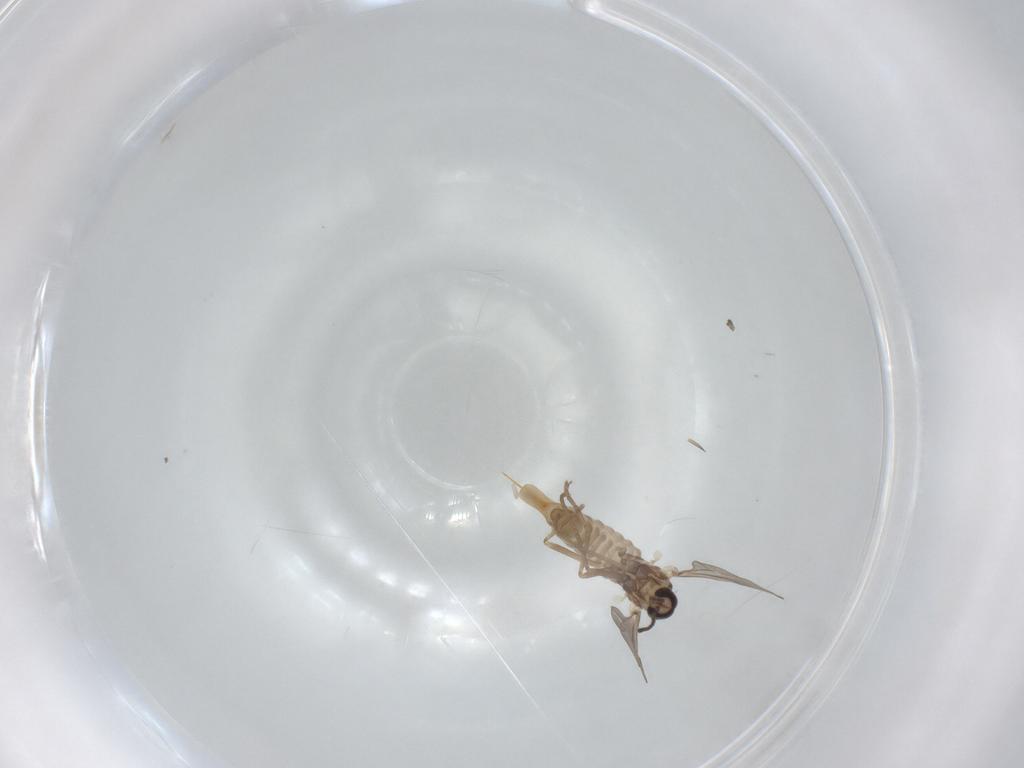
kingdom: Animalia
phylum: Arthropoda
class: Insecta
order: Diptera
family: Cecidomyiidae
